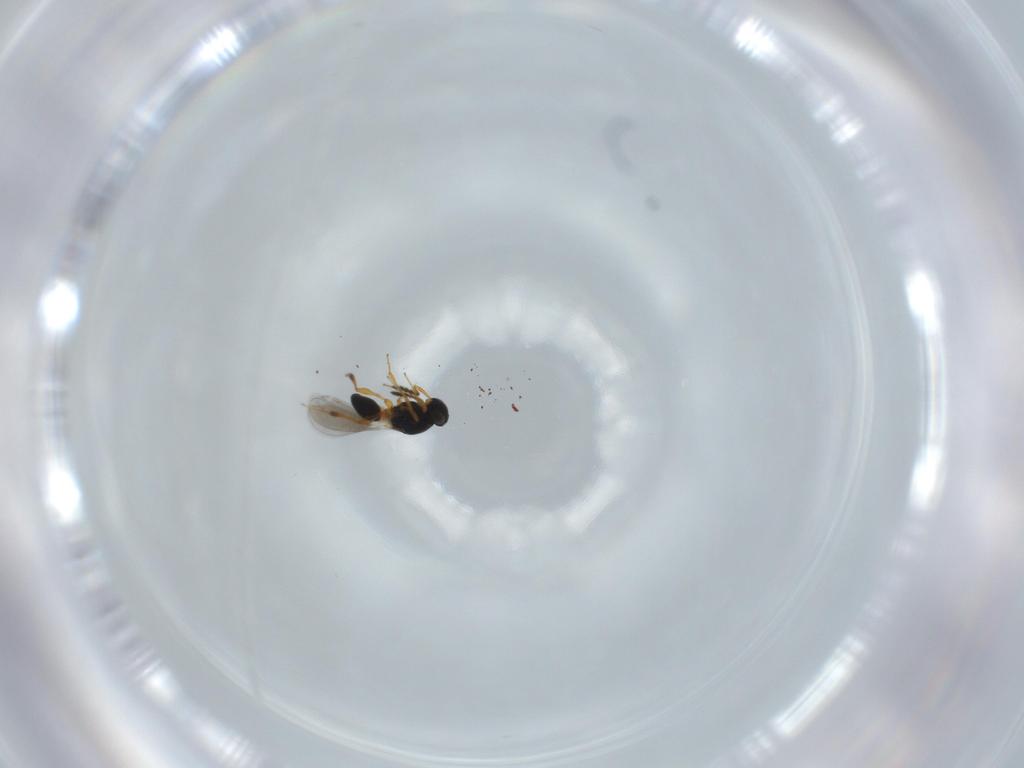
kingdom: Animalia
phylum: Arthropoda
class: Insecta
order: Hymenoptera
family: Platygastridae
